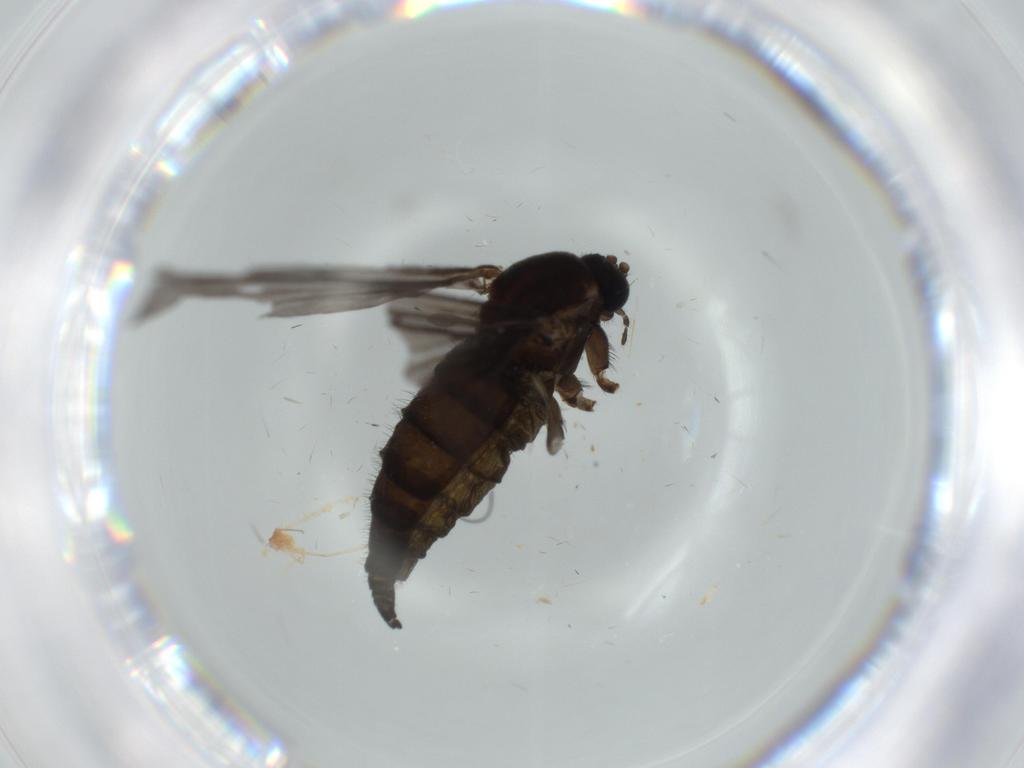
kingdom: Animalia
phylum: Arthropoda
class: Insecta
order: Diptera
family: Sciaridae
